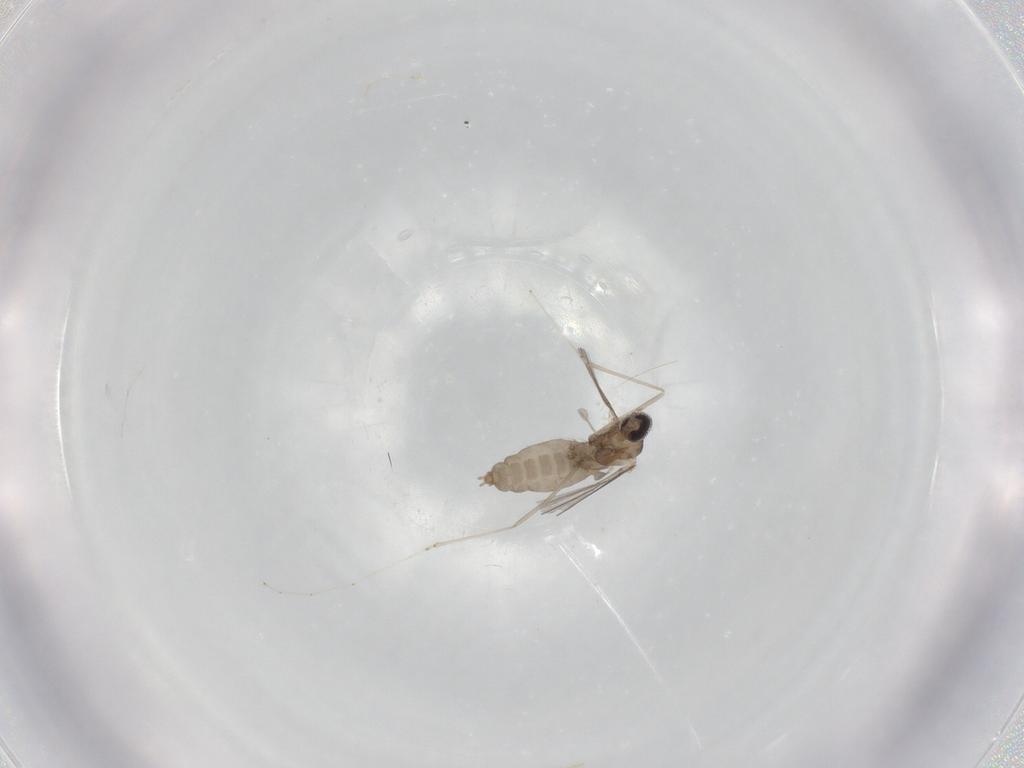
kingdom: Animalia
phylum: Arthropoda
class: Insecta
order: Diptera
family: Cecidomyiidae
